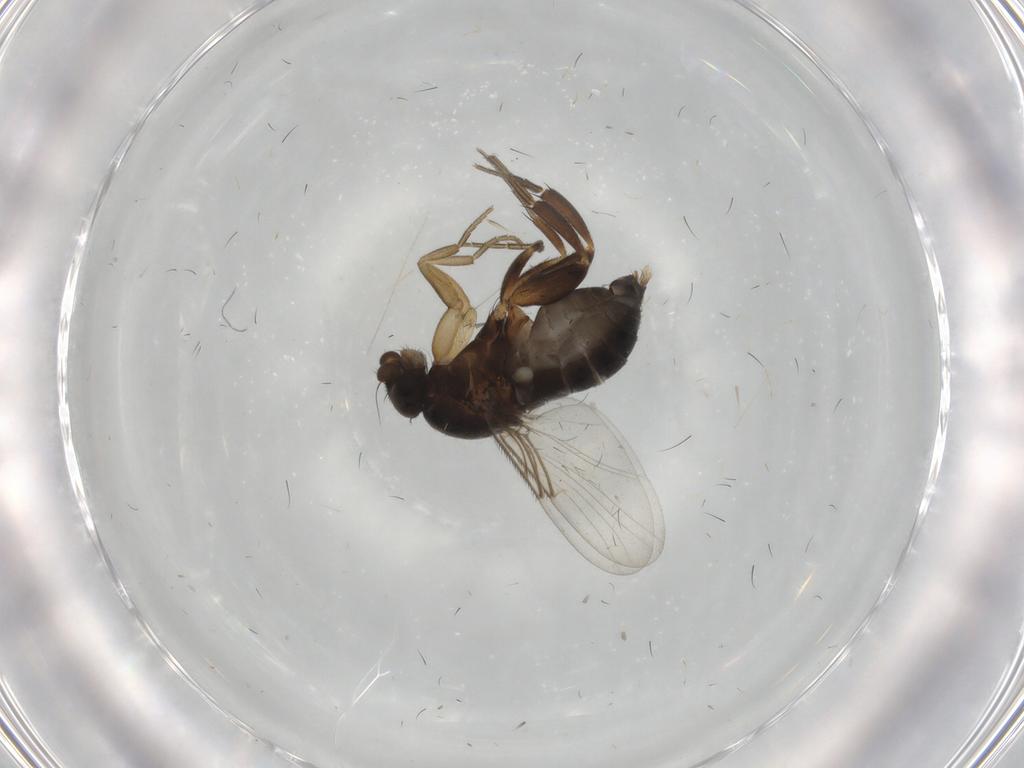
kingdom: Animalia
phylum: Arthropoda
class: Insecta
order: Diptera
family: Phoridae
